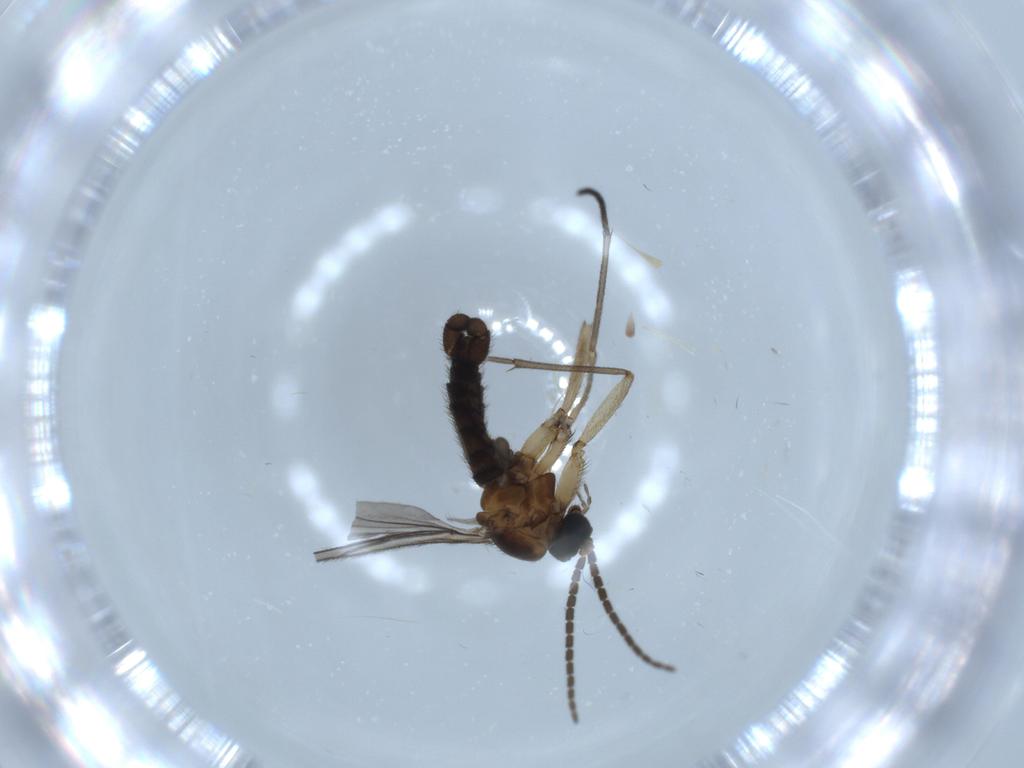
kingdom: Animalia
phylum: Arthropoda
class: Insecta
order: Diptera
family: Sciaridae
